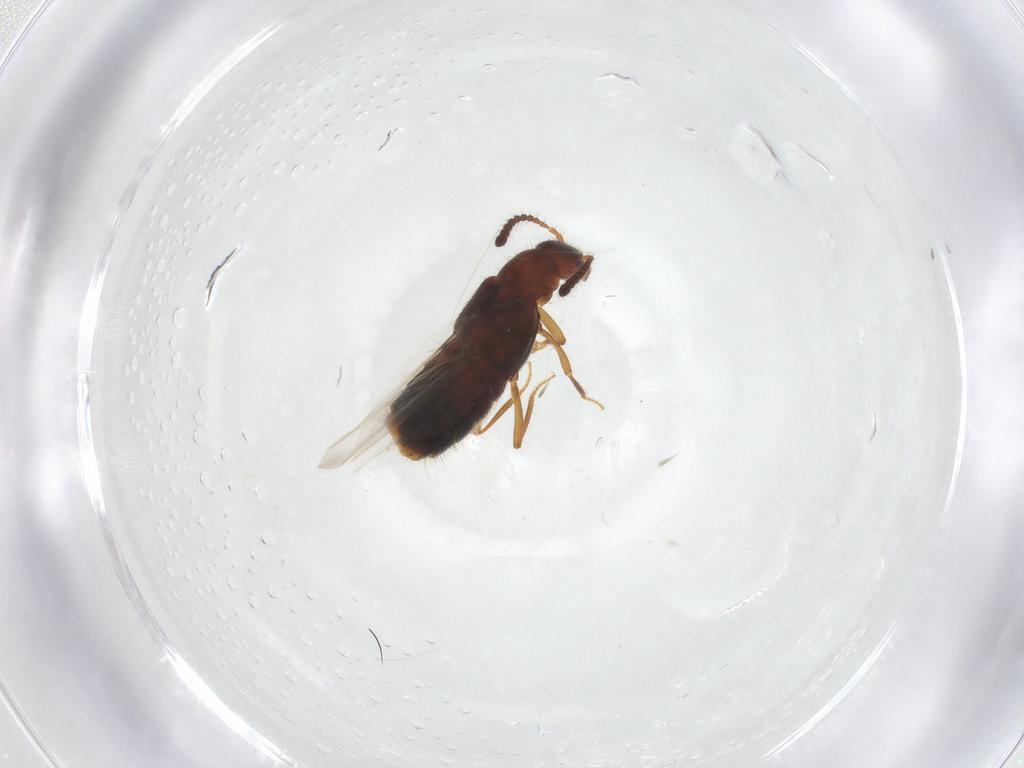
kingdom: Animalia
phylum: Arthropoda
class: Insecta
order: Coleoptera
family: Staphylinidae
